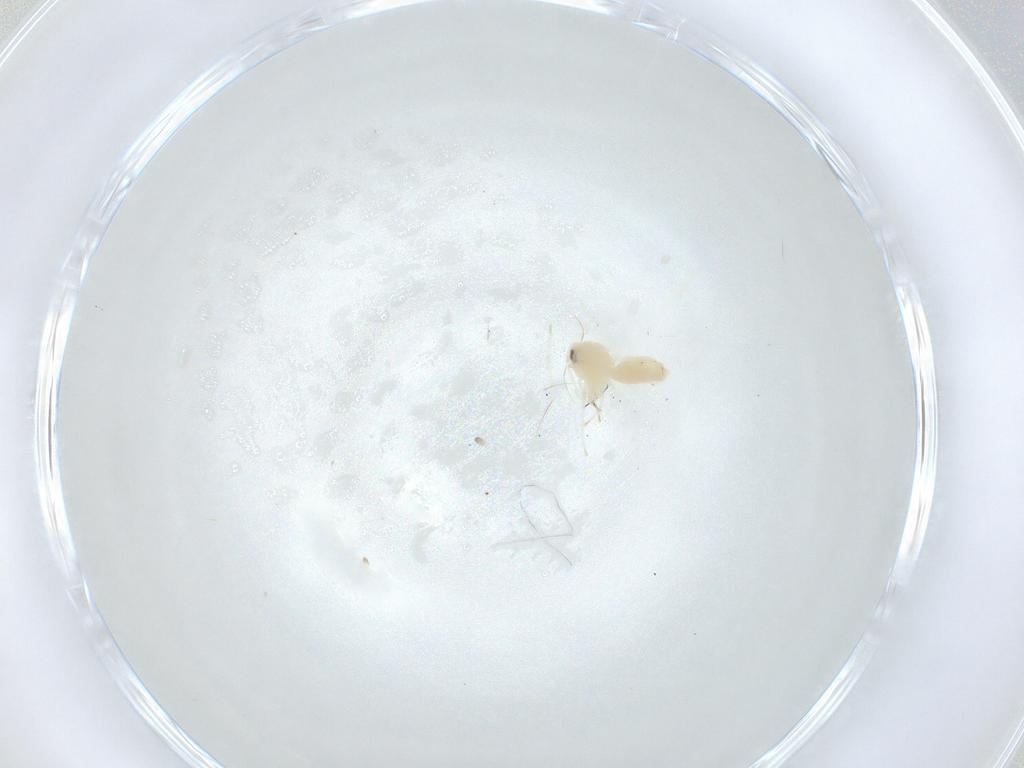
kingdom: Animalia
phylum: Arthropoda
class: Insecta
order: Hemiptera
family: Aleyrodidae
